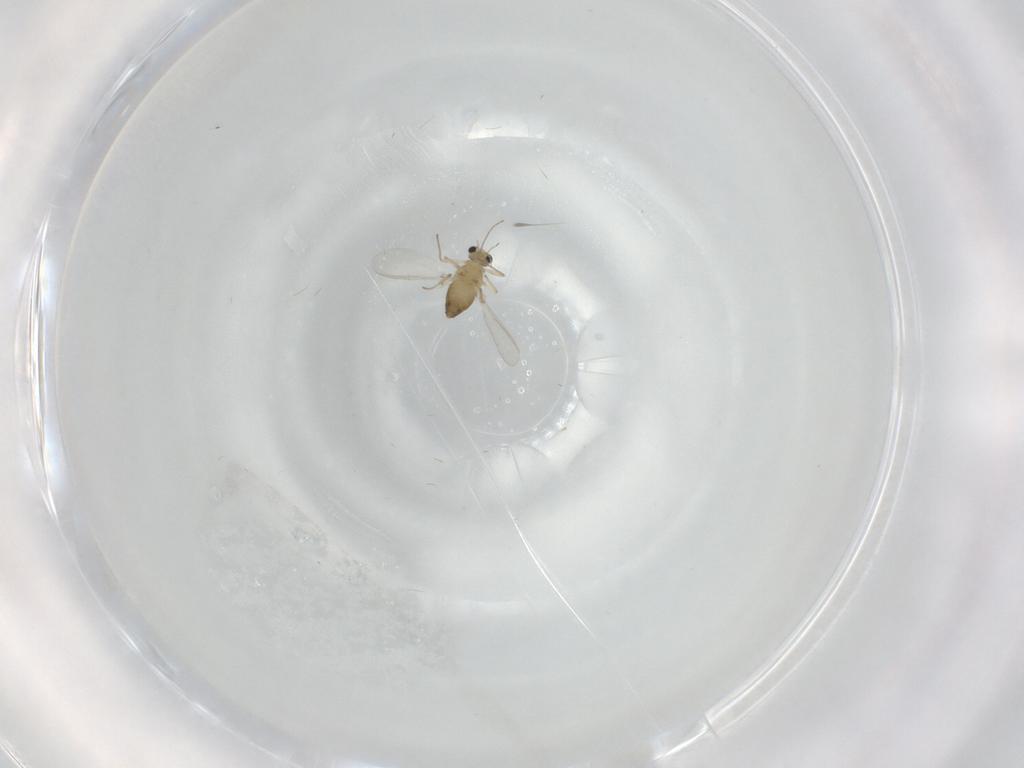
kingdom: Animalia
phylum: Arthropoda
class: Insecta
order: Diptera
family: Chironomidae
